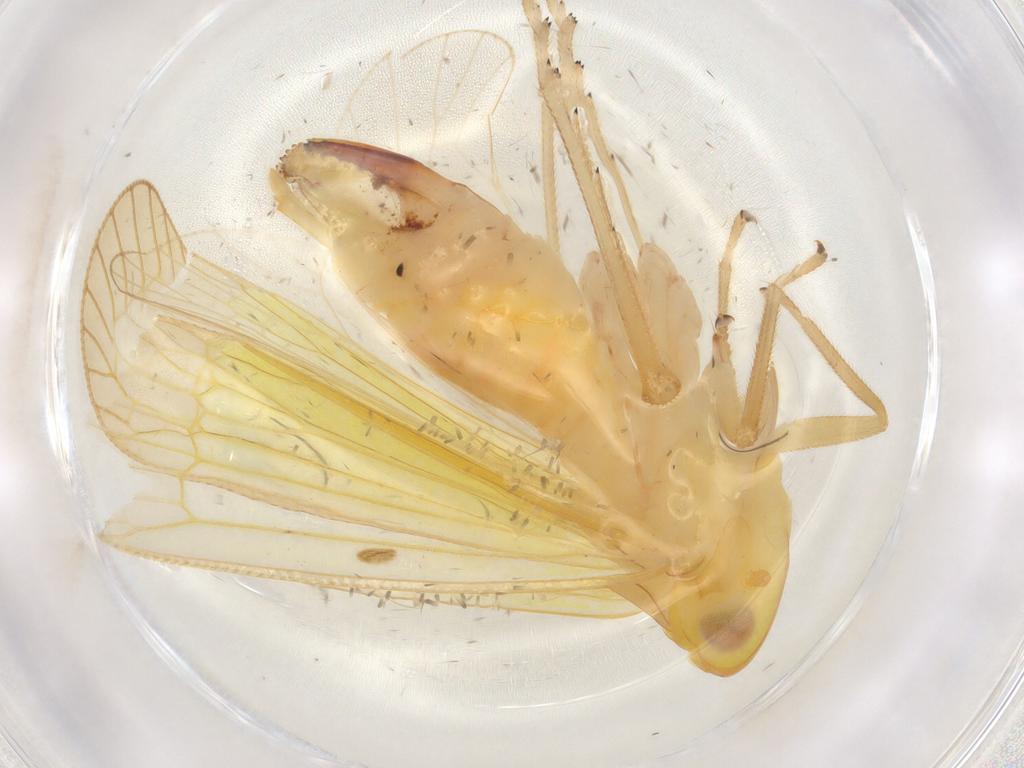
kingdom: Animalia
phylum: Arthropoda
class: Insecta
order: Hemiptera
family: Tropiduchidae
